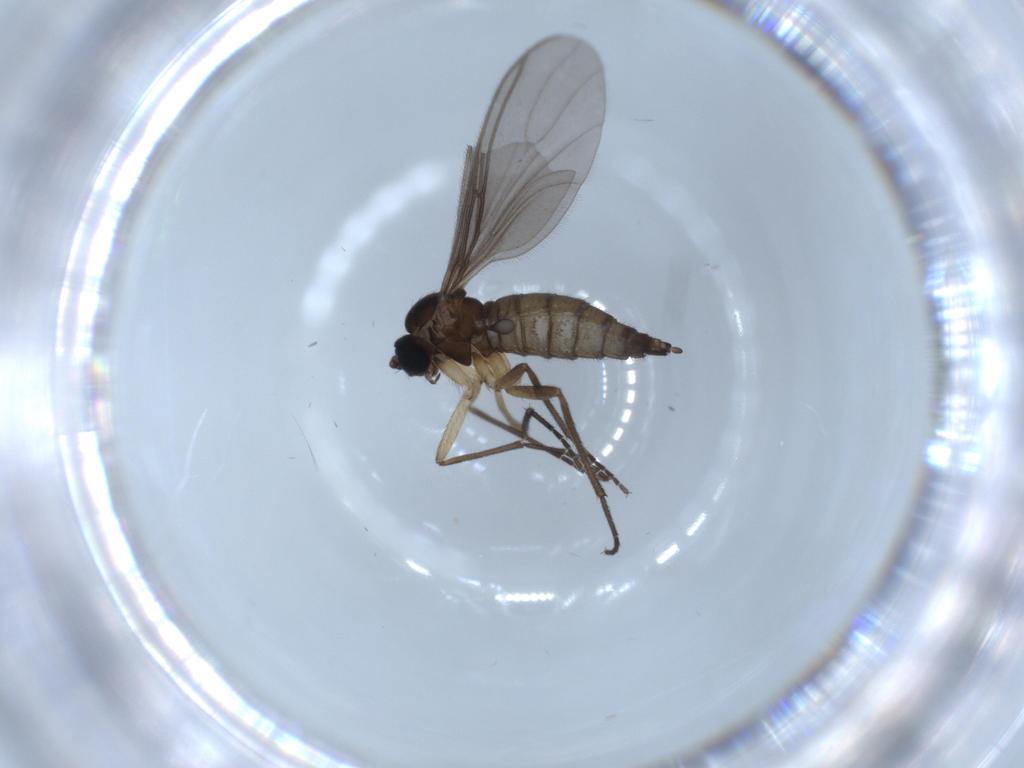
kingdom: Animalia
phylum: Arthropoda
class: Insecta
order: Diptera
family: Sciaridae
